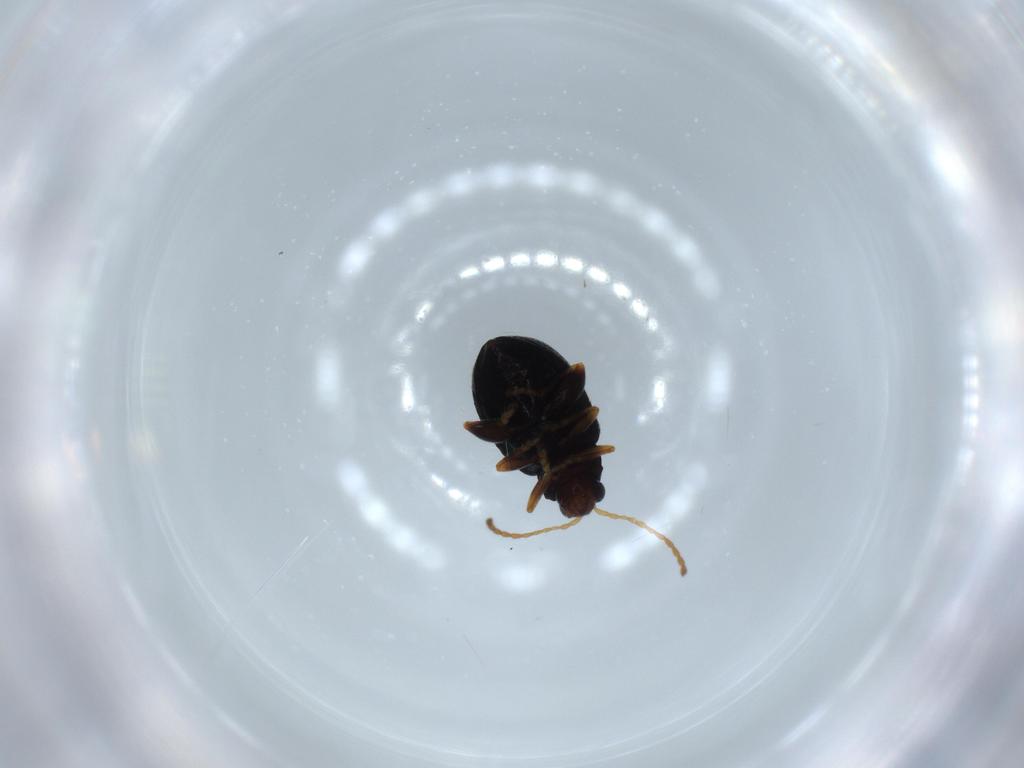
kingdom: Animalia
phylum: Arthropoda
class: Insecta
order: Coleoptera
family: Chrysomelidae
